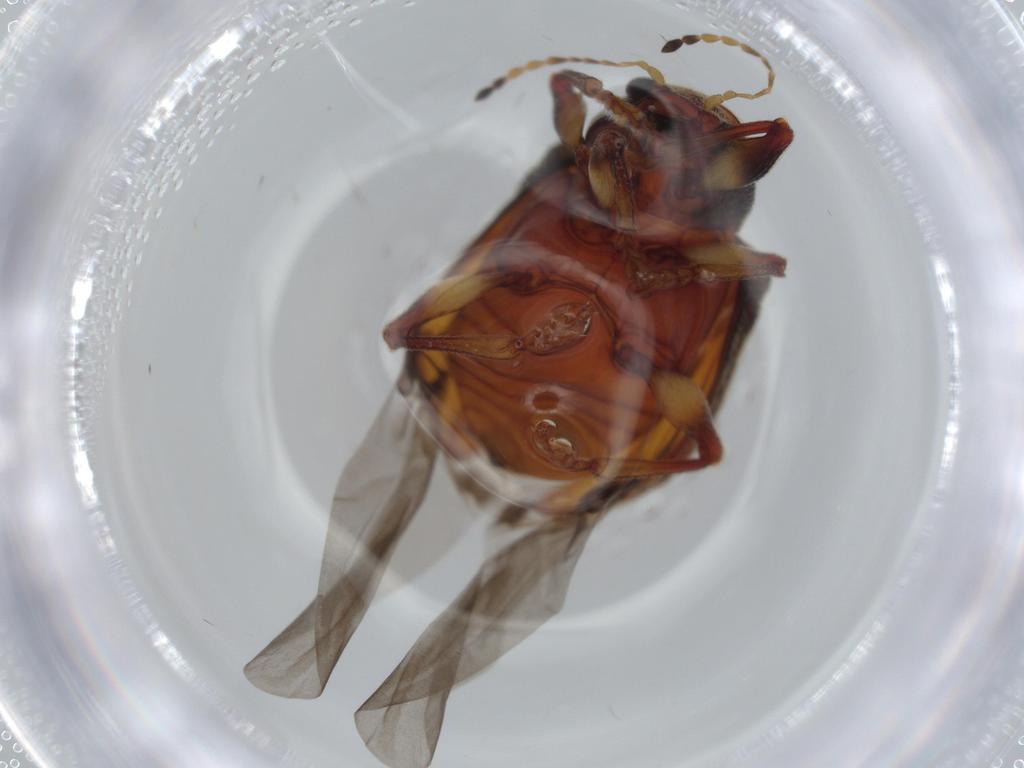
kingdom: Animalia
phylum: Arthropoda
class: Insecta
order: Coleoptera
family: Chrysomelidae
